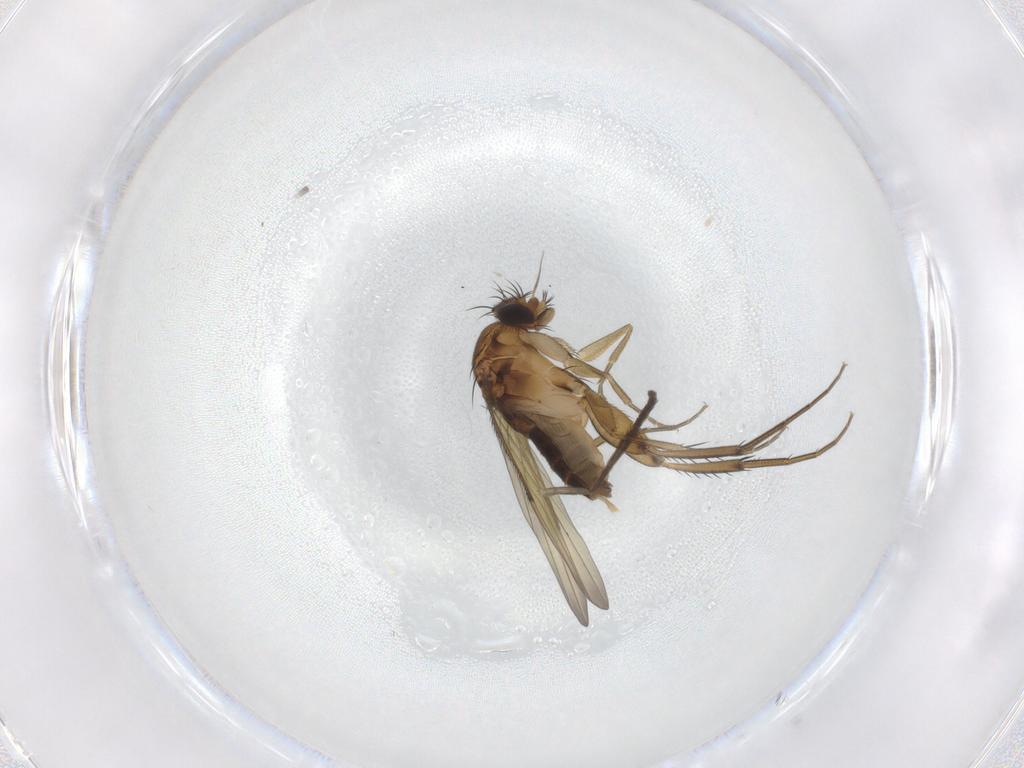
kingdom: Animalia
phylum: Arthropoda
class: Insecta
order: Diptera
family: Phoridae
